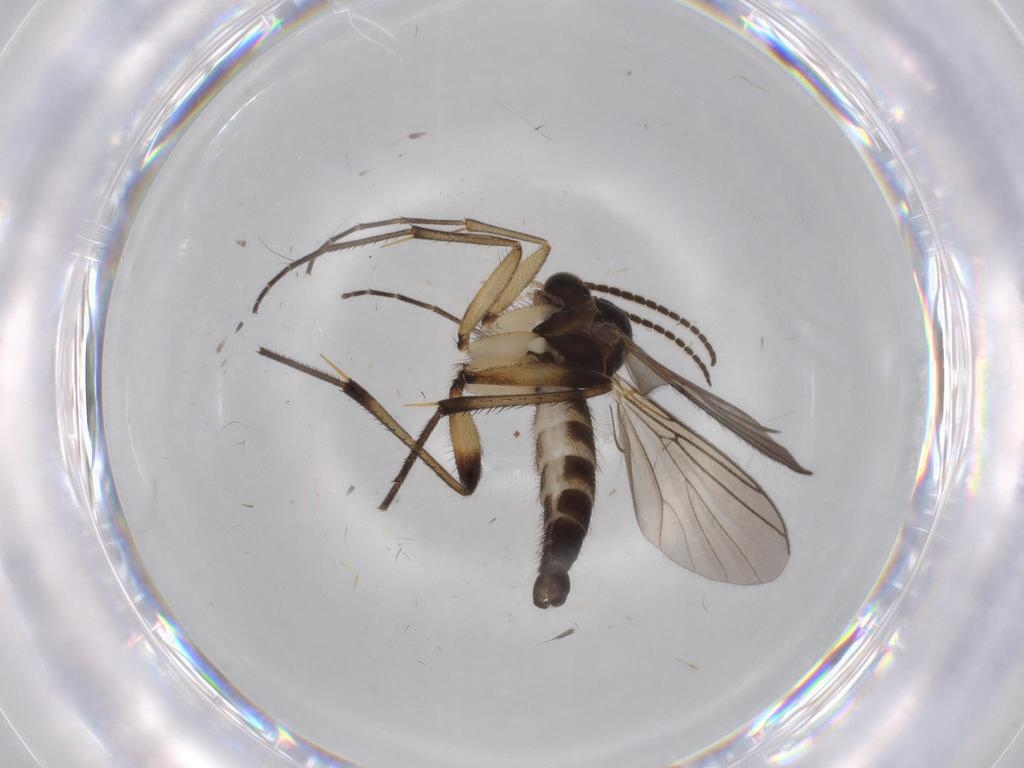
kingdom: Animalia
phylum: Arthropoda
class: Insecta
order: Diptera
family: Mycetophilidae
